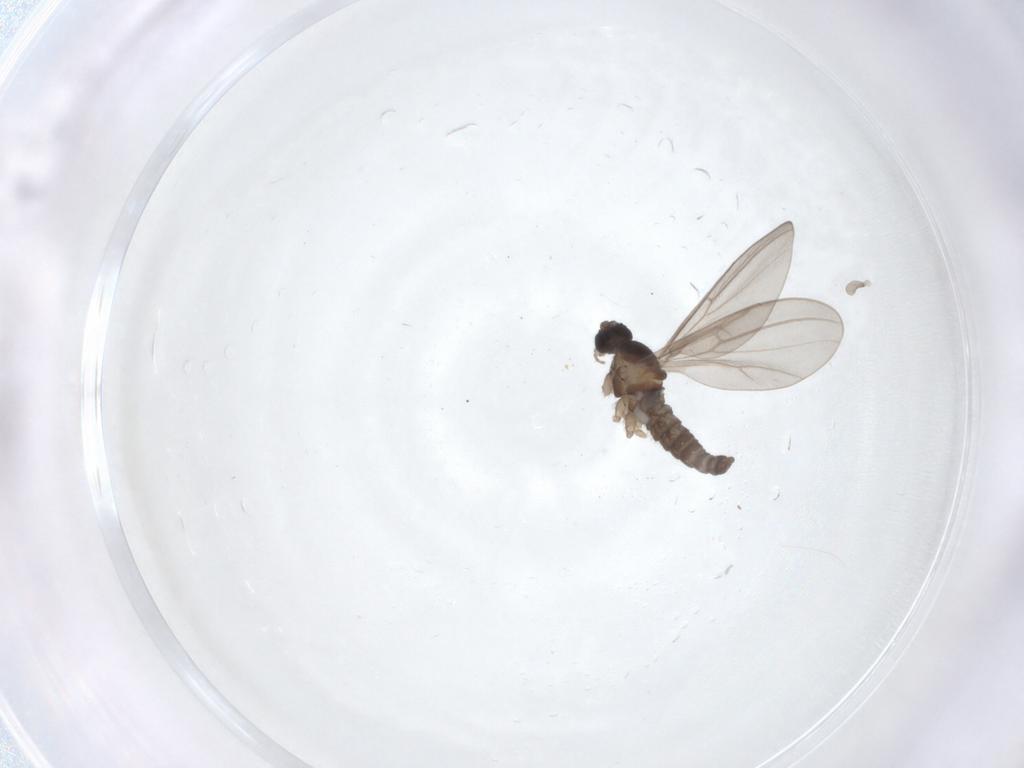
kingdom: Animalia
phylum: Arthropoda
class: Insecta
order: Diptera
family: Cecidomyiidae
